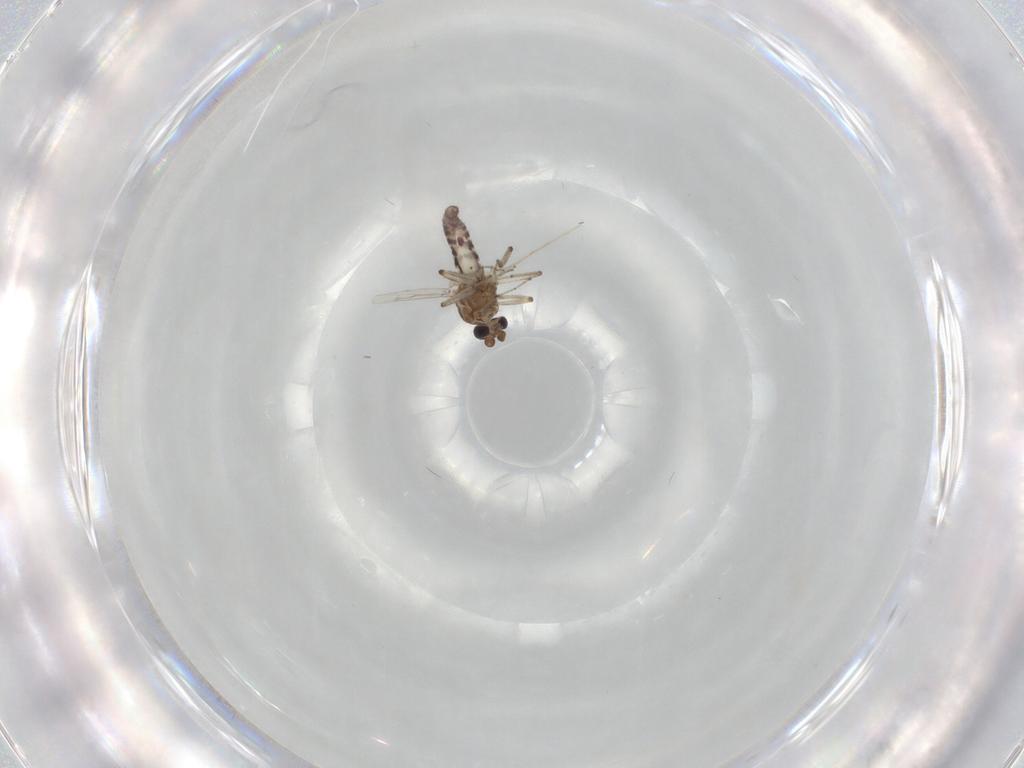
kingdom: Animalia
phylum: Arthropoda
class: Insecta
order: Diptera
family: Ceratopogonidae
